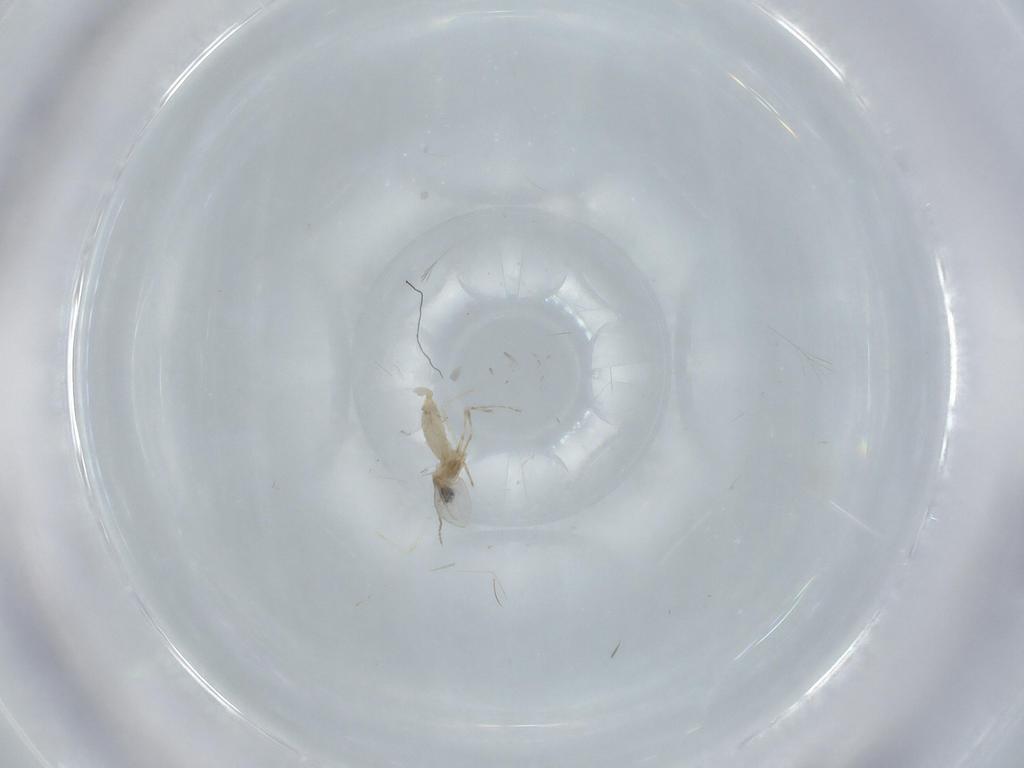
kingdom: Animalia
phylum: Arthropoda
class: Insecta
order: Diptera
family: Cecidomyiidae
